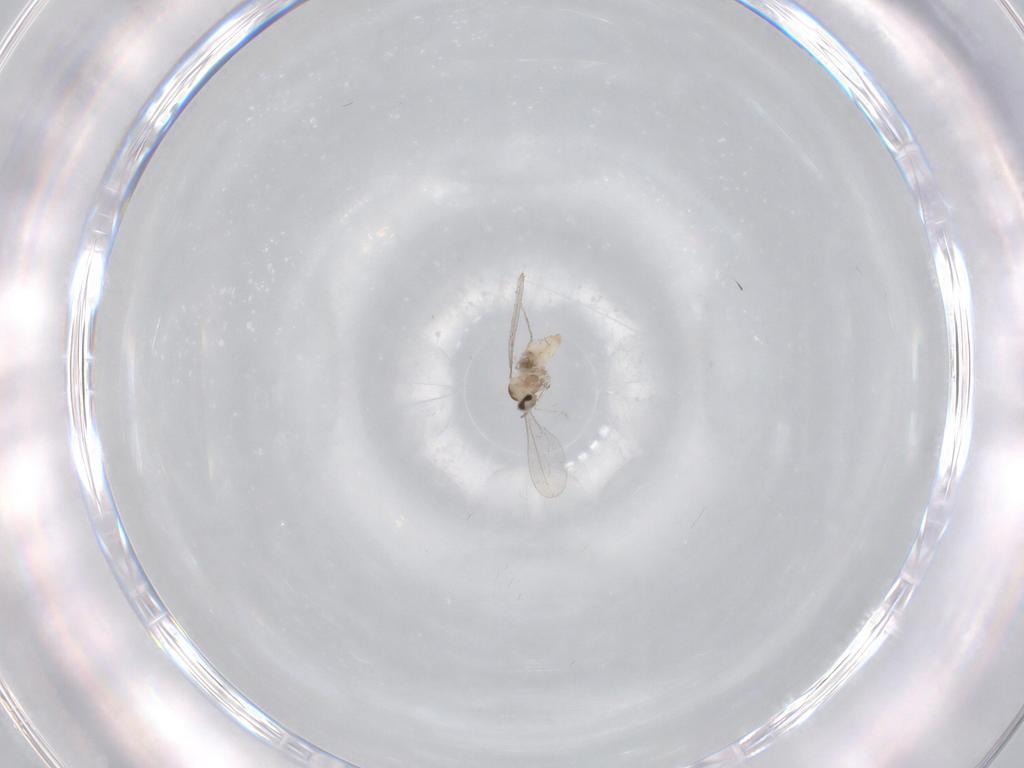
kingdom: Animalia
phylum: Arthropoda
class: Insecta
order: Diptera
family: Cecidomyiidae
